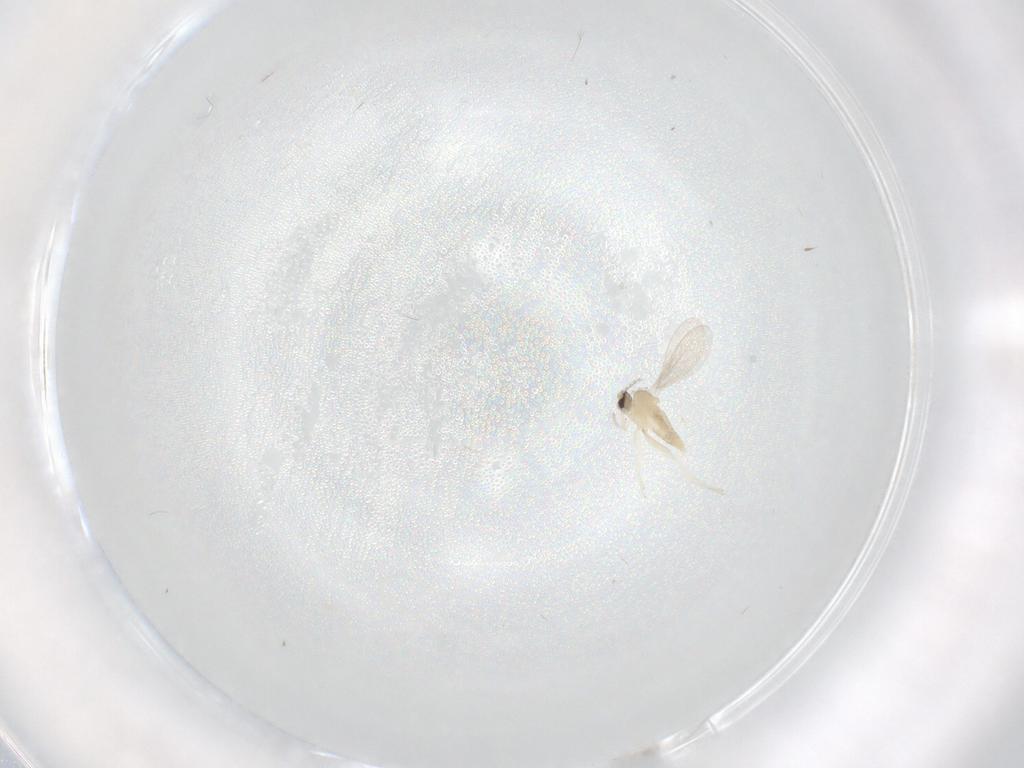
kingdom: Animalia
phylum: Arthropoda
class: Insecta
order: Diptera
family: Cecidomyiidae
